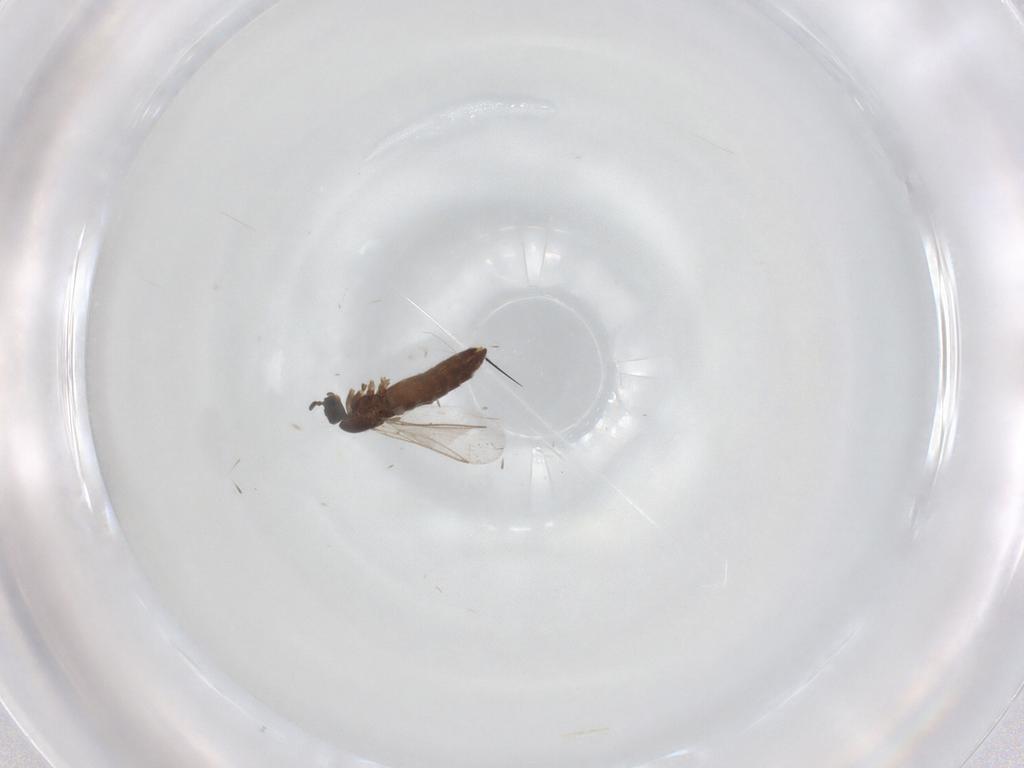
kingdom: Animalia
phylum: Arthropoda
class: Insecta
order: Diptera
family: Scatopsidae
